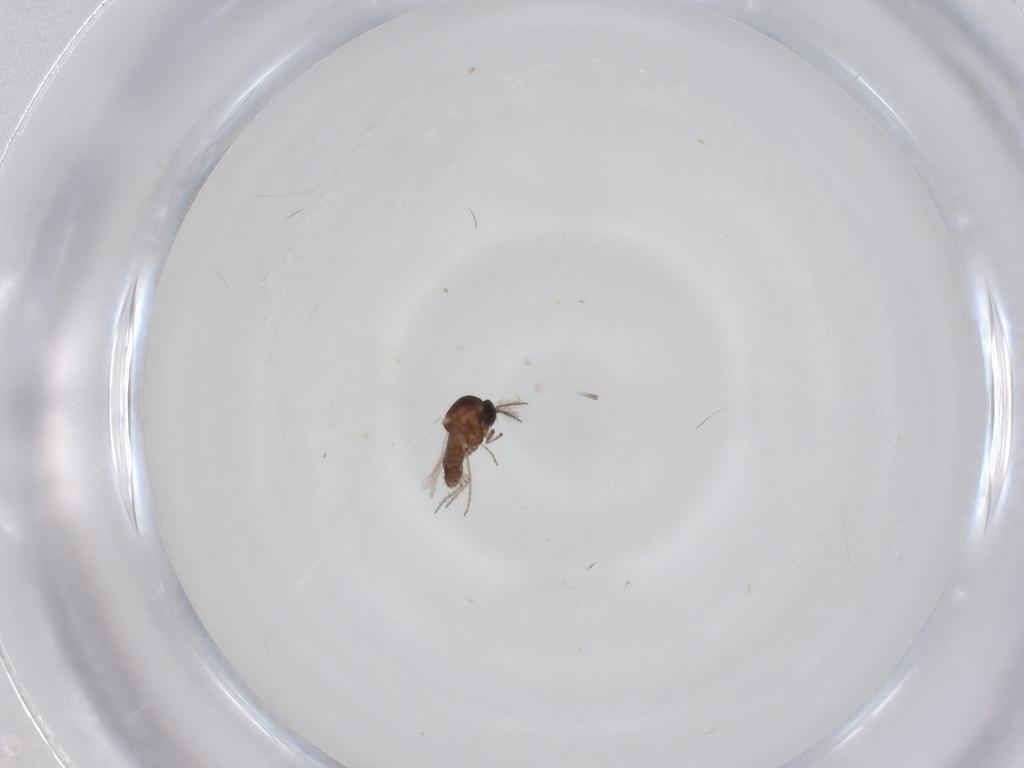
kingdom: Animalia
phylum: Arthropoda
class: Insecta
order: Diptera
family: Ceratopogonidae
